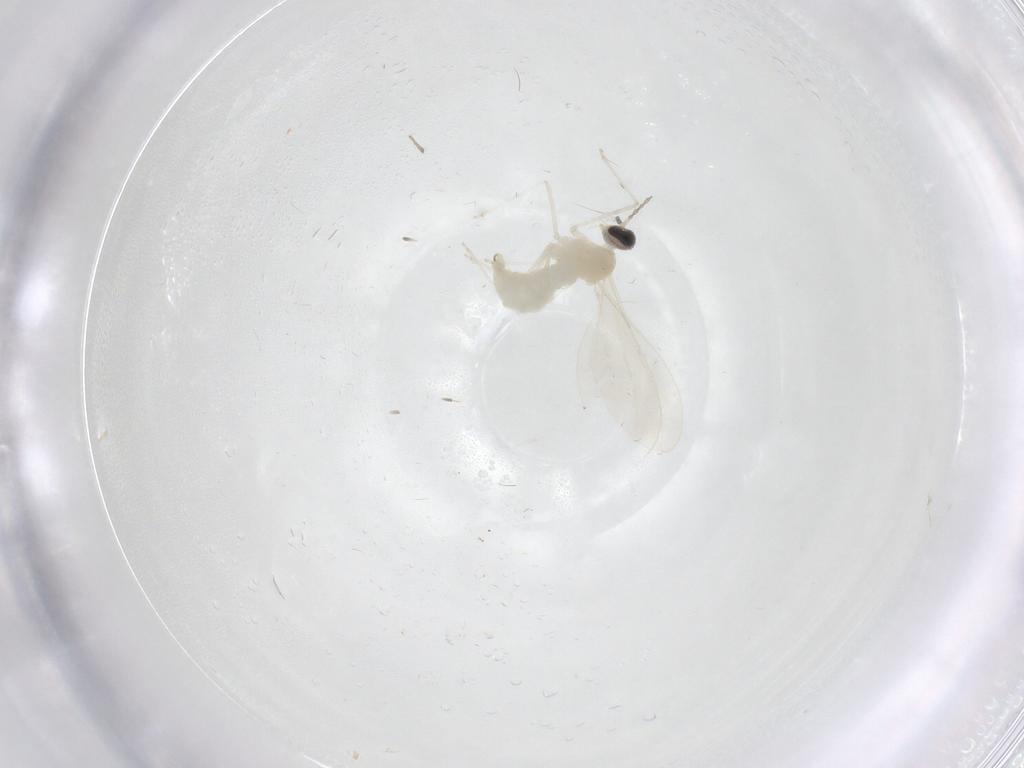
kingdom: Animalia
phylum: Arthropoda
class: Insecta
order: Diptera
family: Cecidomyiidae
